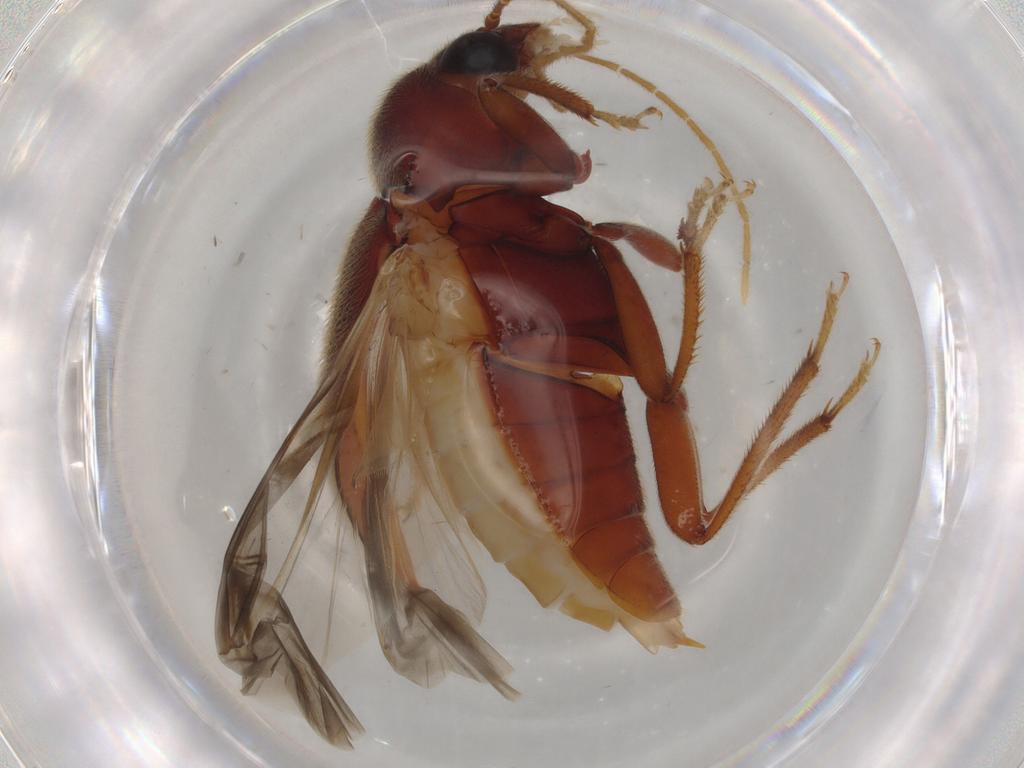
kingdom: Animalia
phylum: Arthropoda
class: Insecta
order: Coleoptera
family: Ptilodactylidae
